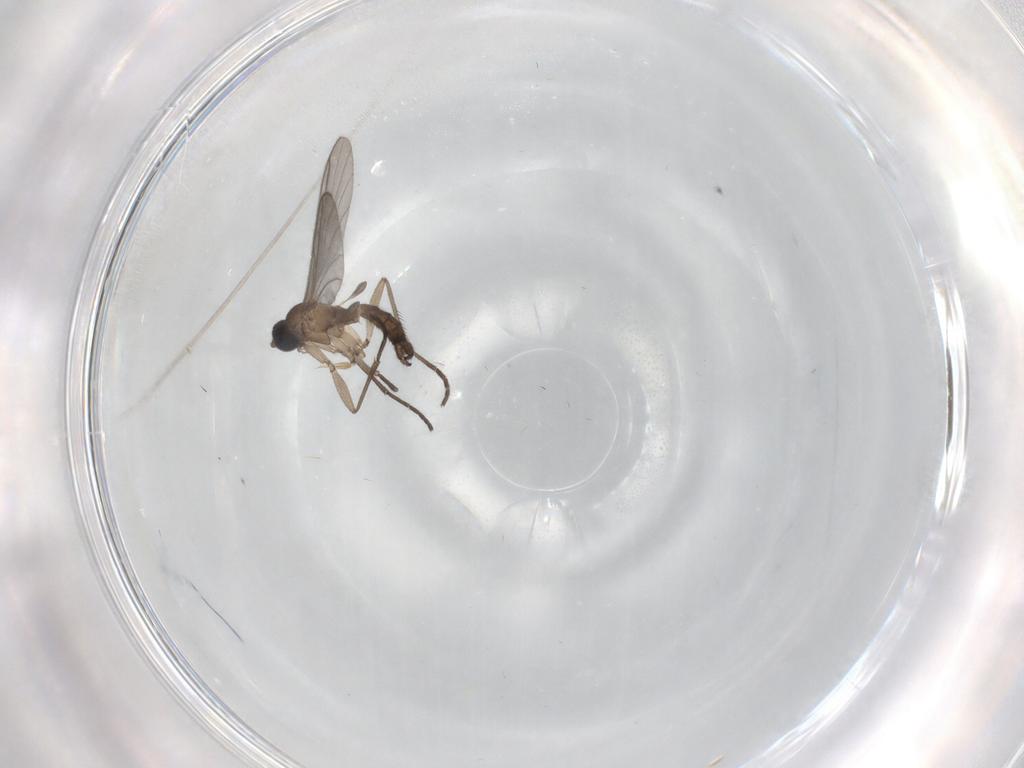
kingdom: Animalia
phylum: Arthropoda
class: Insecta
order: Diptera
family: Sciaridae
